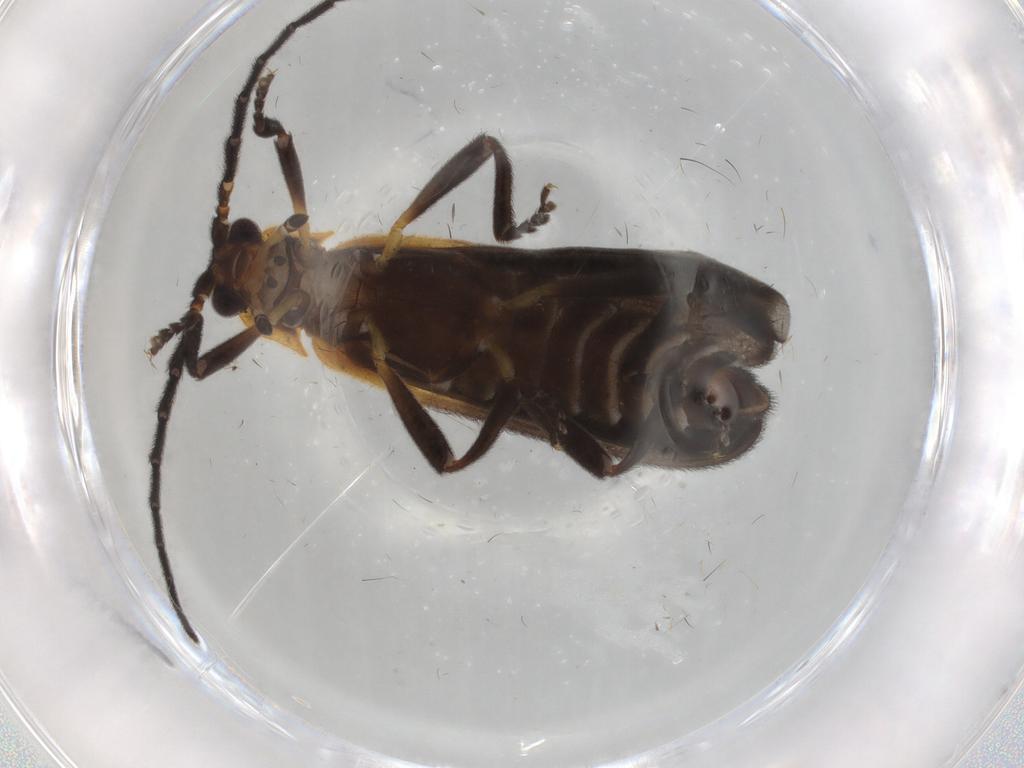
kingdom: Animalia
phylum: Arthropoda
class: Insecta
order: Coleoptera
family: Lycidae
